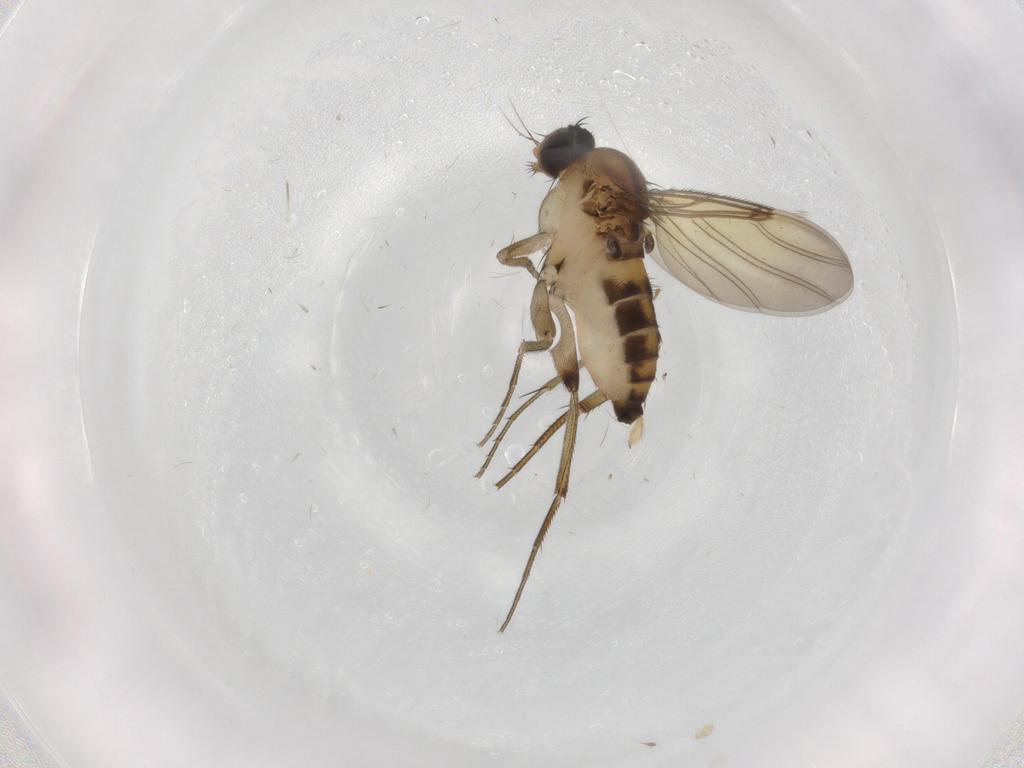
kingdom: Animalia
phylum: Arthropoda
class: Insecta
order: Diptera
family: Phoridae
